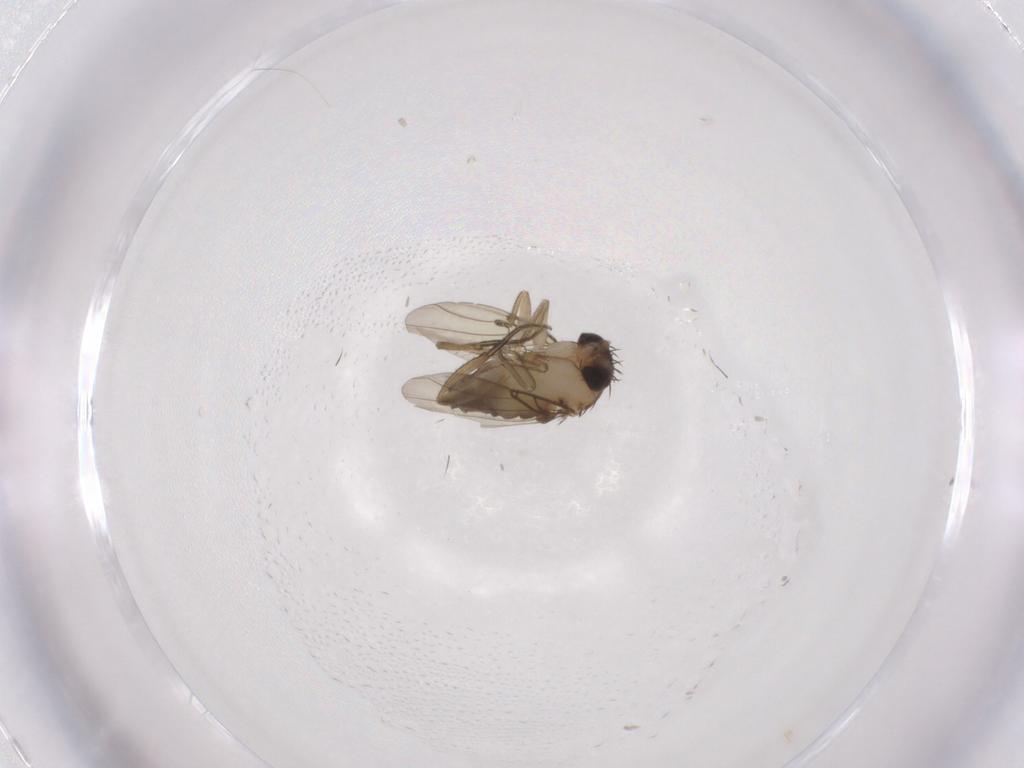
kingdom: Animalia
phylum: Arthropoda
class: Insecta
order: Diptera
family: Phoridae
